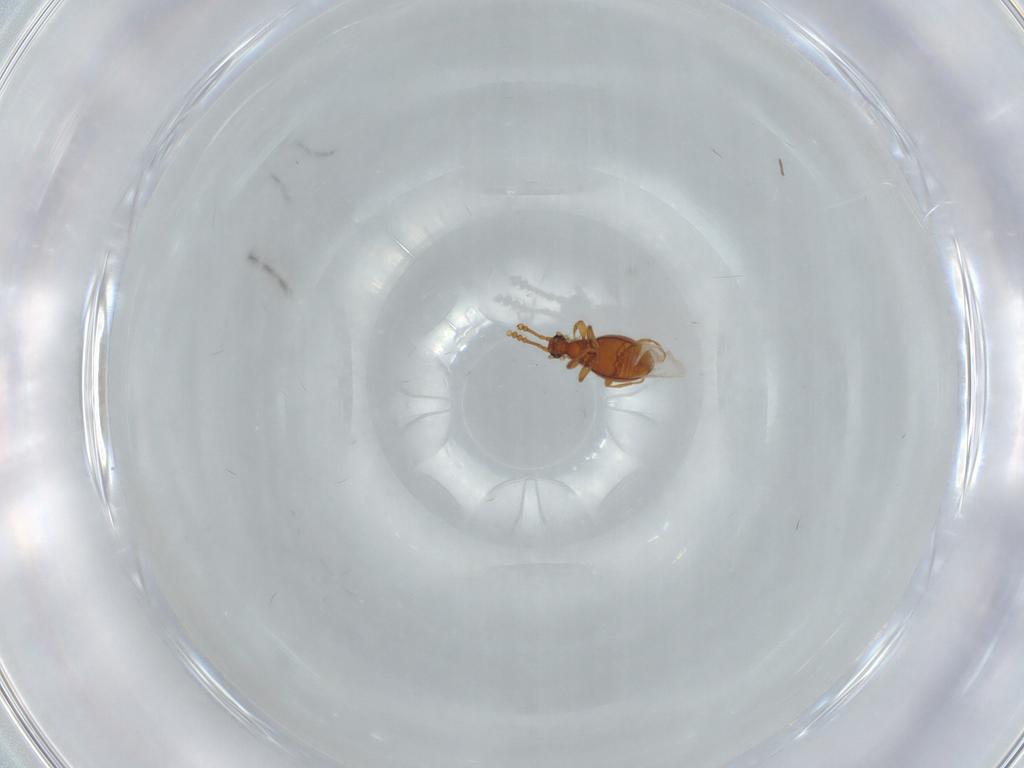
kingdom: Animalia
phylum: Arthropoda
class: Insecta
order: Coleoptera
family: Staphylinidae
